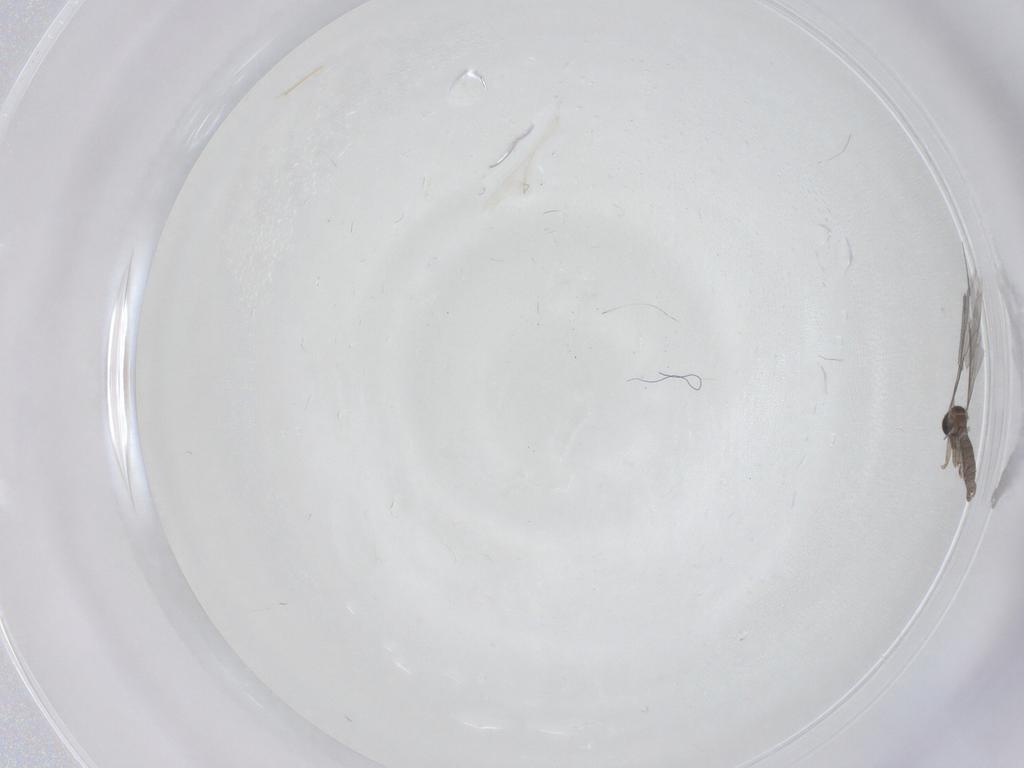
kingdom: Animalia
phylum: Arthropoda
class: Insecta
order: Diptera
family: Sciaridae
